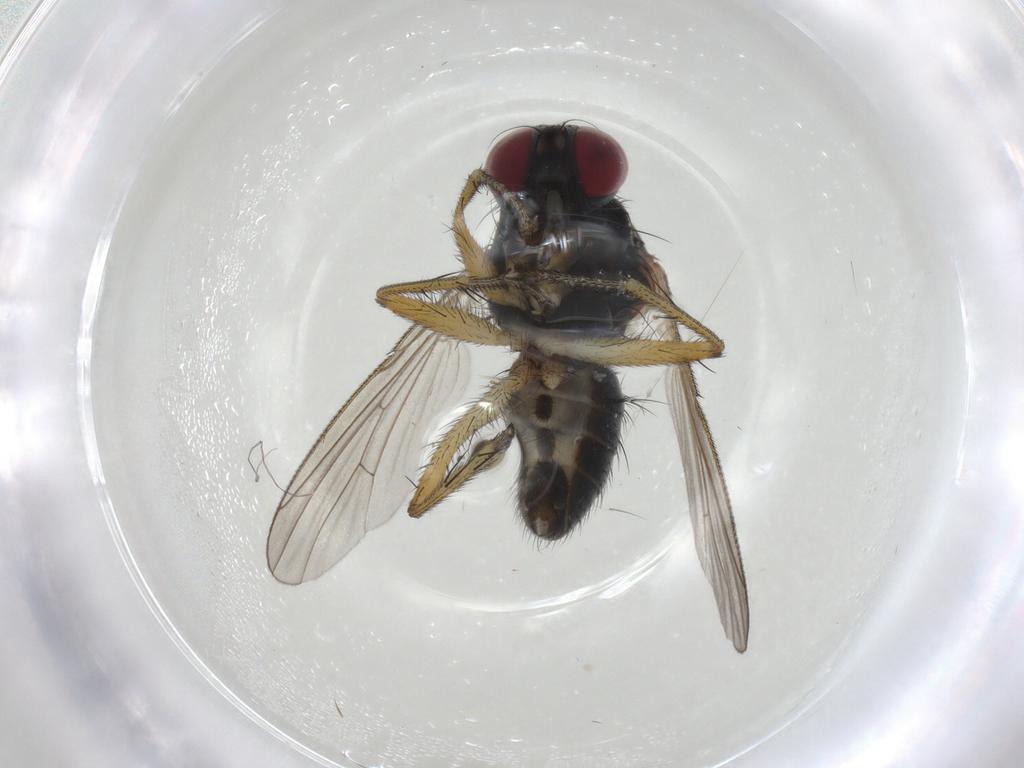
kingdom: Animalia
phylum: Arthropoda
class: Insecta
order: Diptera
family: Muscidae
